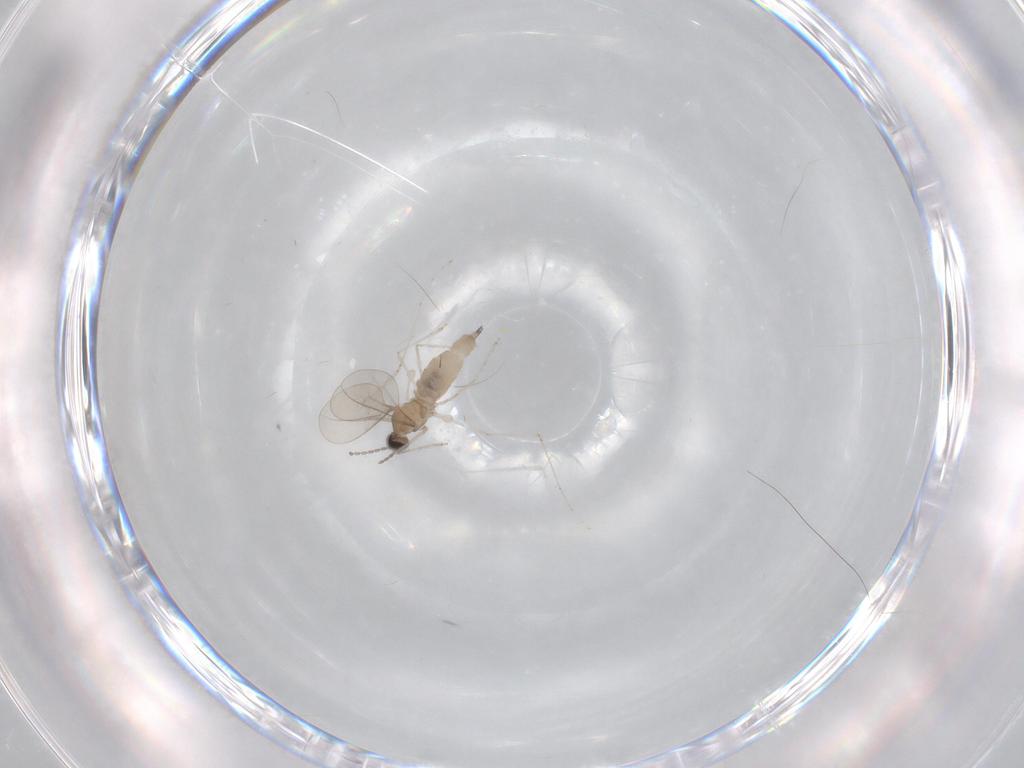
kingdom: Animalia
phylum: Arthropoda
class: Insecta
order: Diptera
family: Cecidomyiidae
